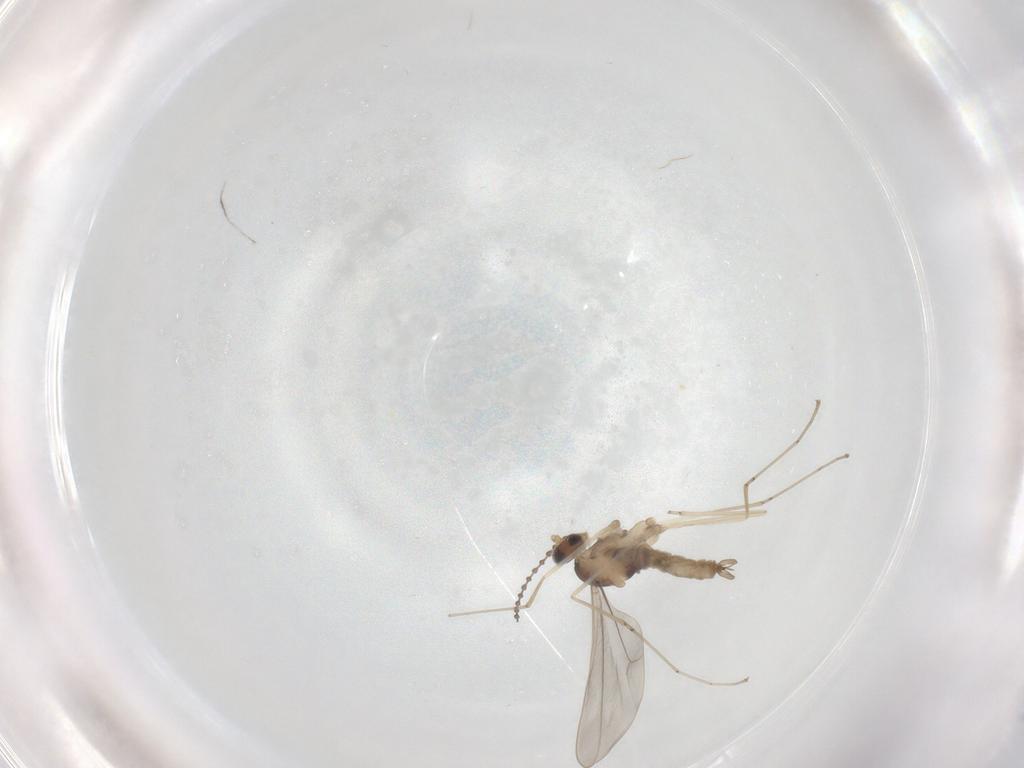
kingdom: Animalia
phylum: Arthropoda
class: Insecta
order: Diptera
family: Cecidomyiidae
